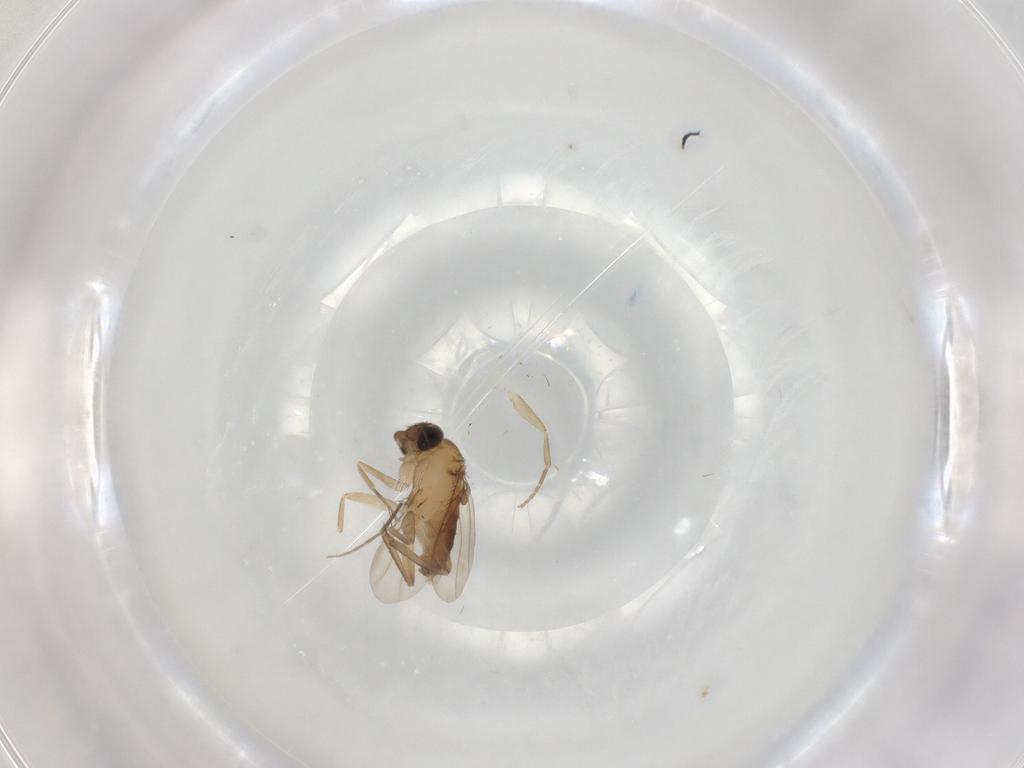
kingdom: Animalia
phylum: Arthropoda
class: Insecta
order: Diptera
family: Phoridae
